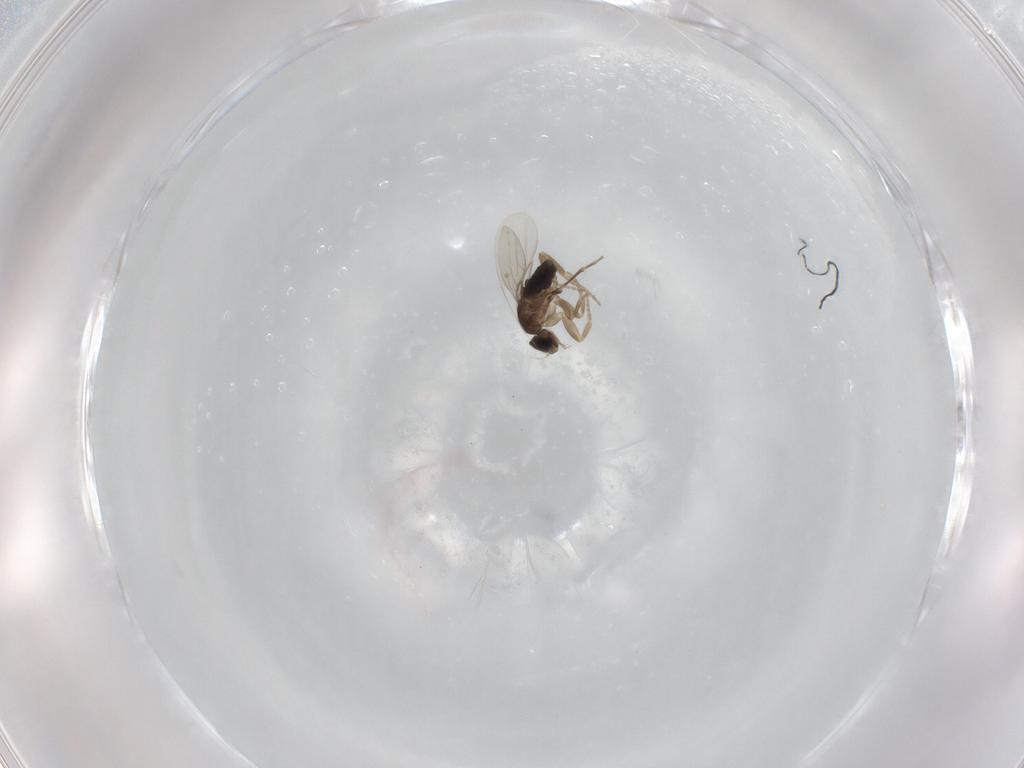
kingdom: Animalia
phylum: Arthropoda
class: Insecta
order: Diptera
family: Phoridae
